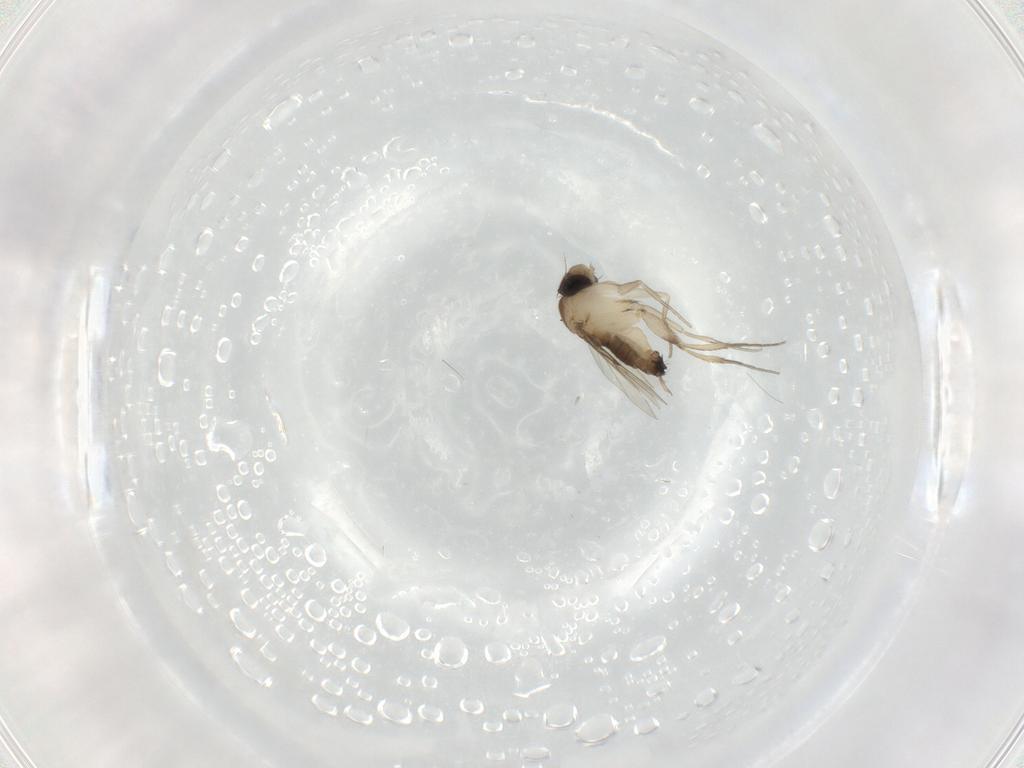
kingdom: Animalia
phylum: Arthropoda
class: Insecta
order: Diptera
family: Phoridae
